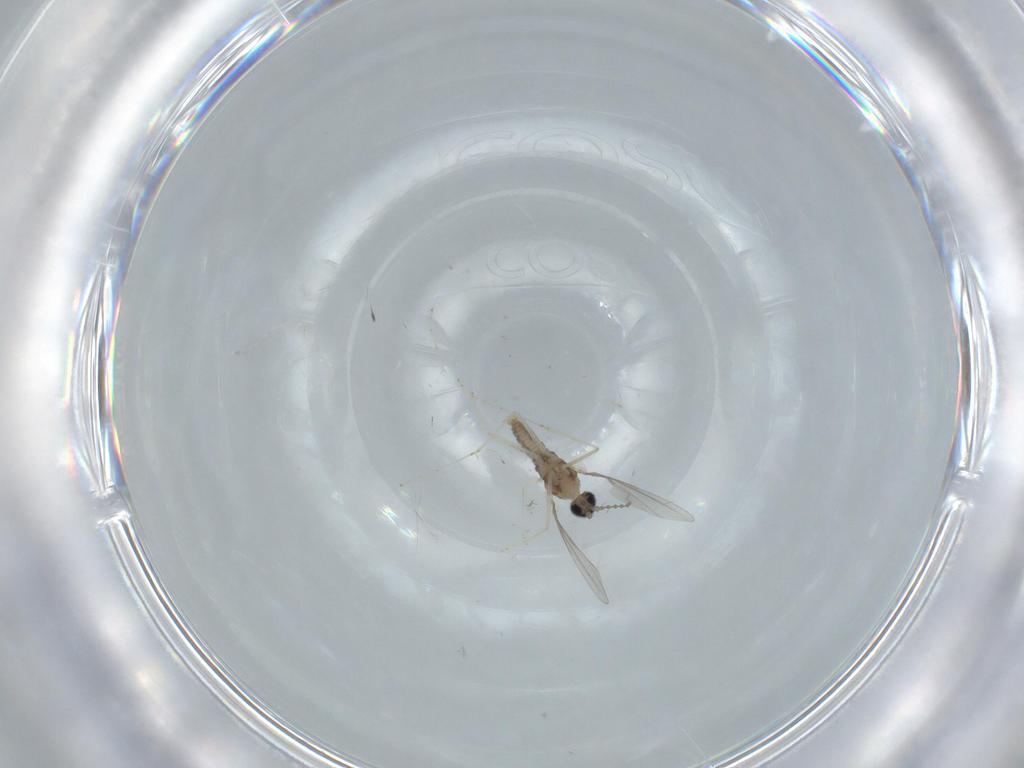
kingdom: Animalia
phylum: Arthropoda
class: Insecta
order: Diptera
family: Cecidomyiidae
